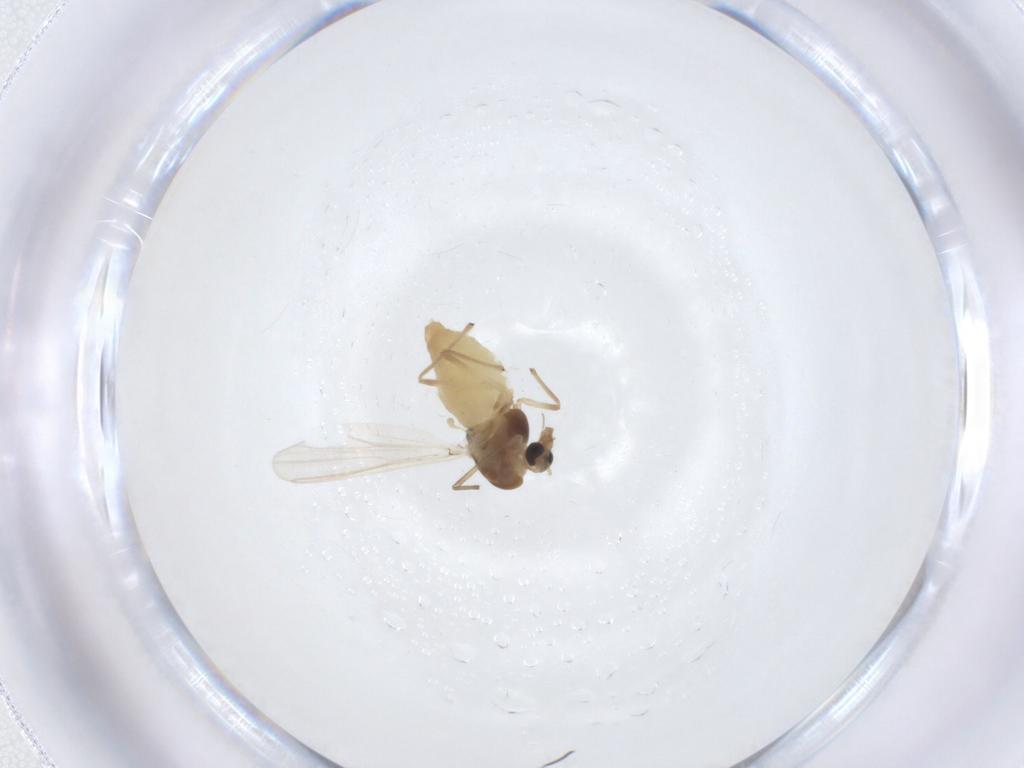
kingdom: Animalia
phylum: Arthropoda
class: Insecta
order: Diptera
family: Chironomidae
